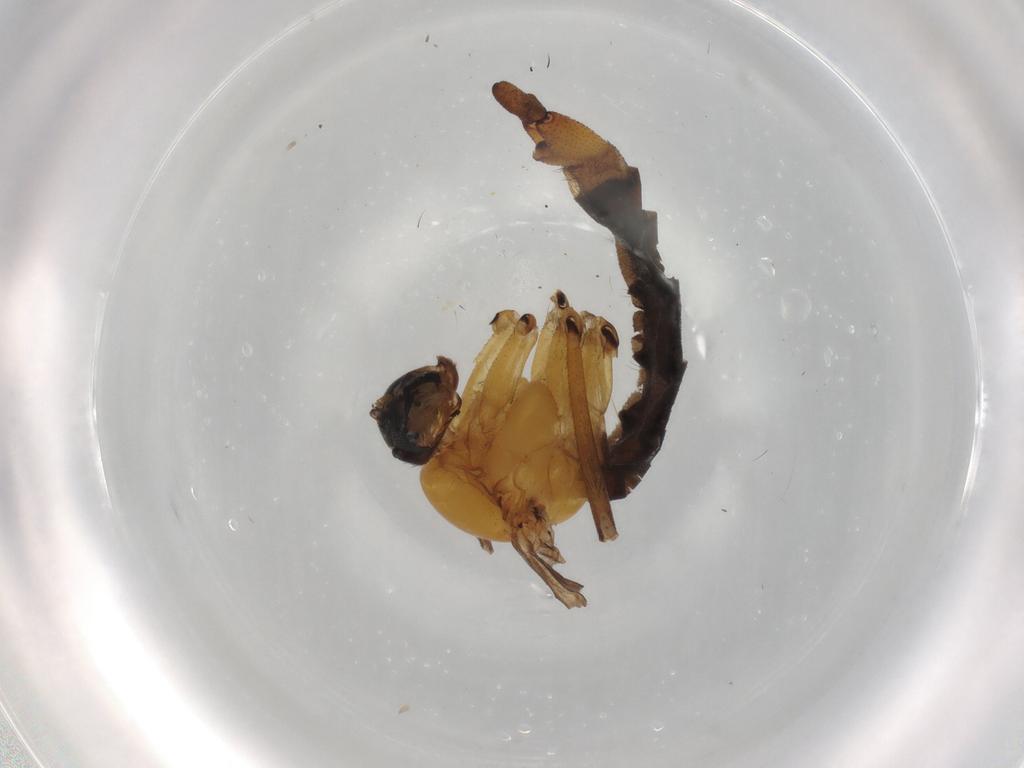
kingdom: Animalia
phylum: Arthropoda
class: Insecta
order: Diptera
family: Sciaridae
